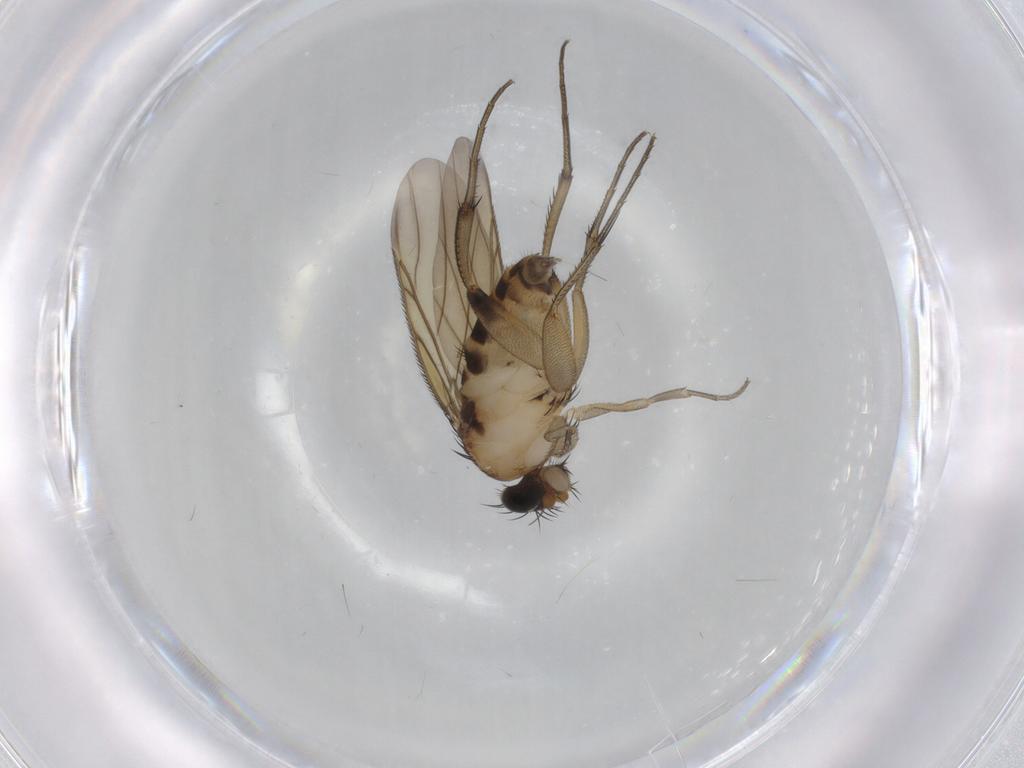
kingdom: Animalia
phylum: Arthropoda
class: Insecta
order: Diptera
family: Phoridae
